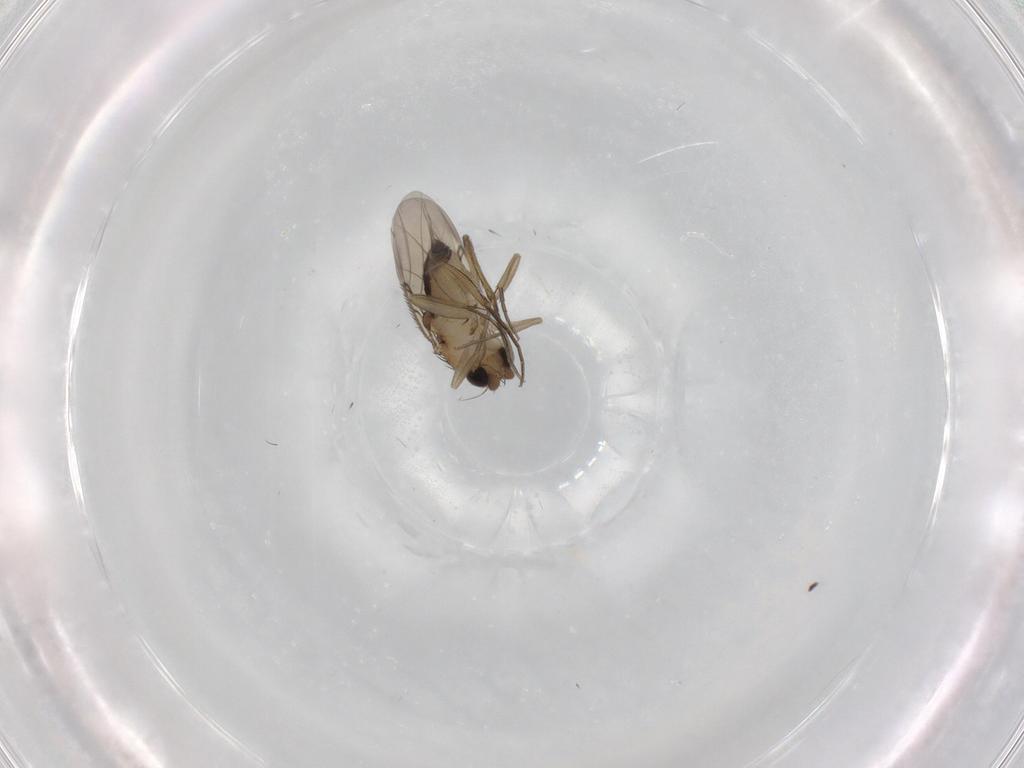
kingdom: Animalia
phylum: Arthropoda
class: Insecta
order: Diptera
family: Phoridae
